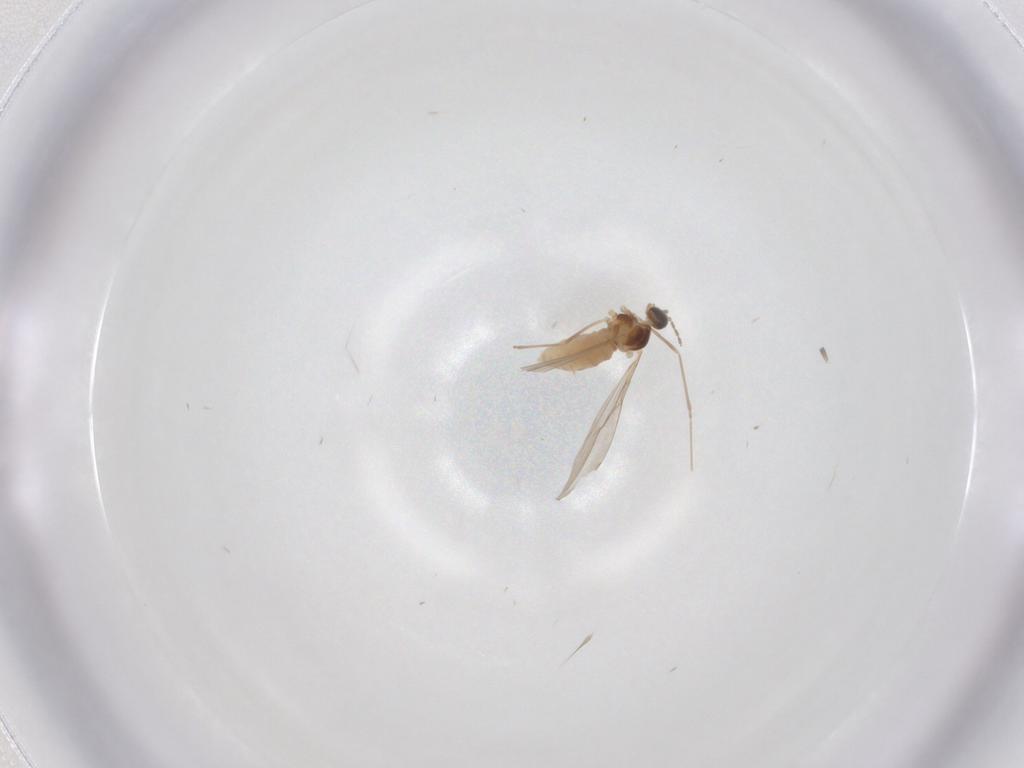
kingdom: Animalia
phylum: Arthropoda
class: Insecta
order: Diptera
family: Cecidomyiidae
